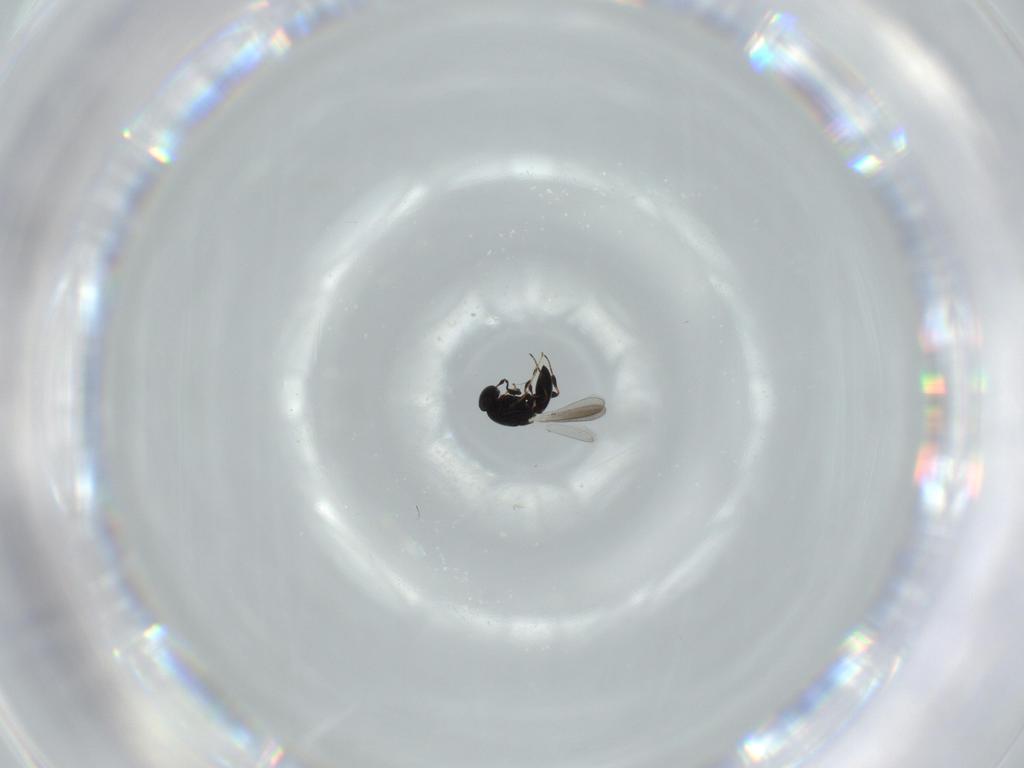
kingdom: Animalia
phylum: Arthropoda
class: Insecta
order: Hymenoptera
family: Platygastridae
